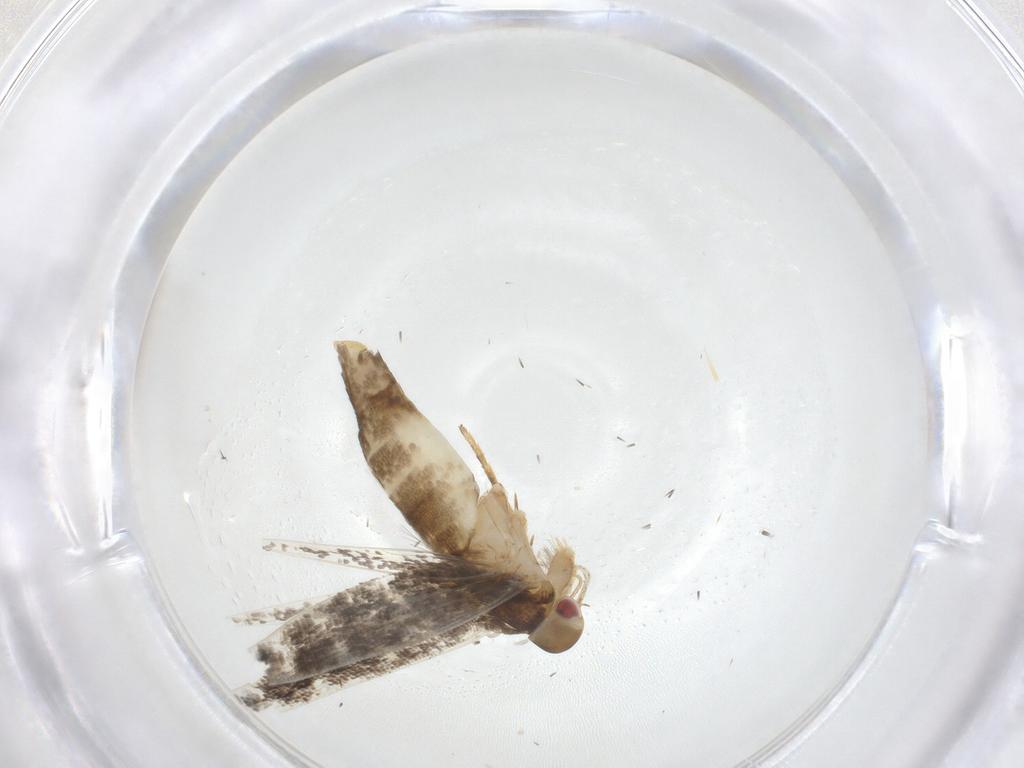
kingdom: Animalia
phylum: Arthropoda
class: Insecta
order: Lepidoptera
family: Cosmopterigidae
